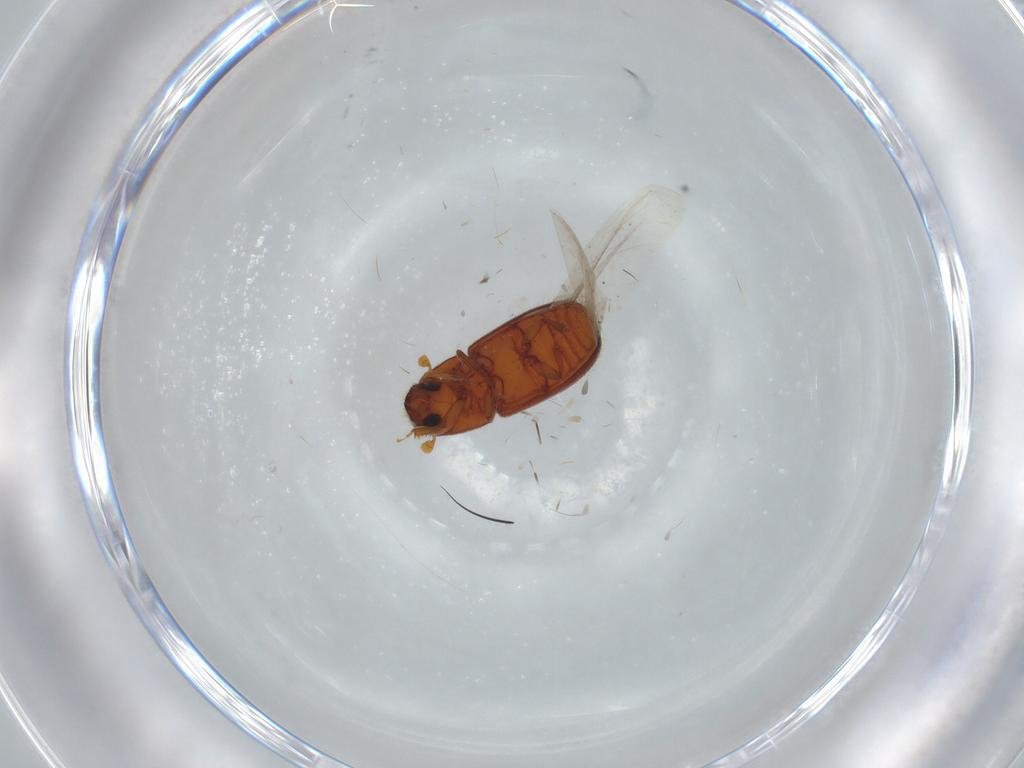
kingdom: Animalia
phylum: Arthropoda
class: Insecta
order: Coleoptera
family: Curculionidae
